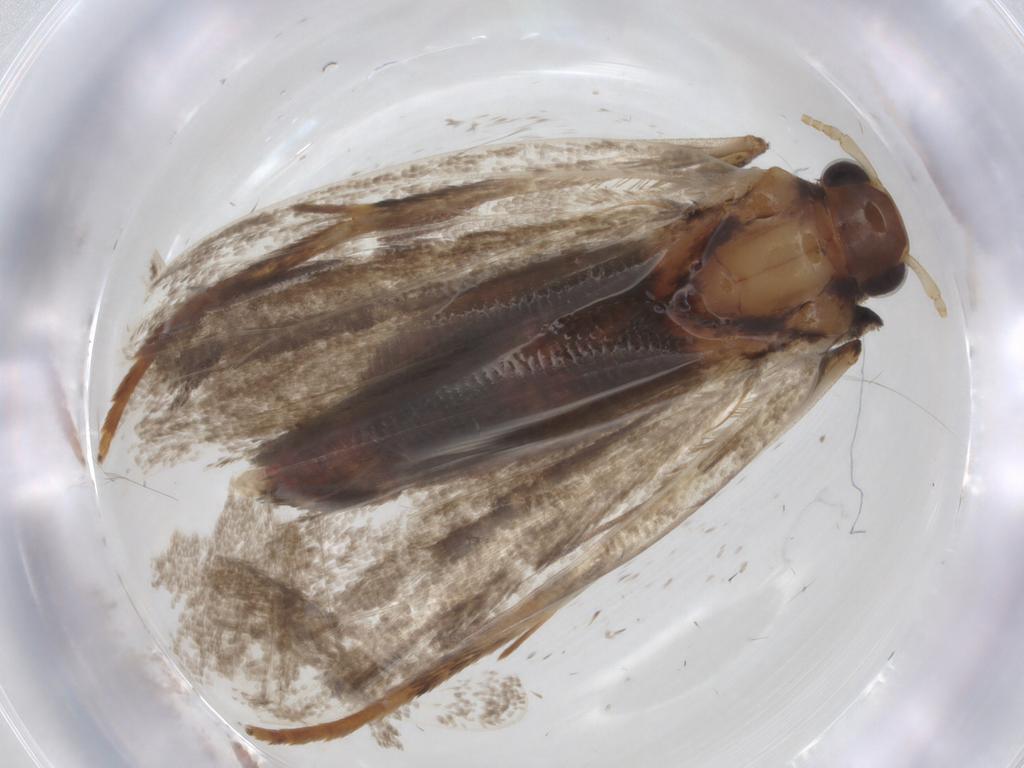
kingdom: Animalia
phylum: Arthropoda
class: Insecta
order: Lepidoptera
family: Lecithoceridae
